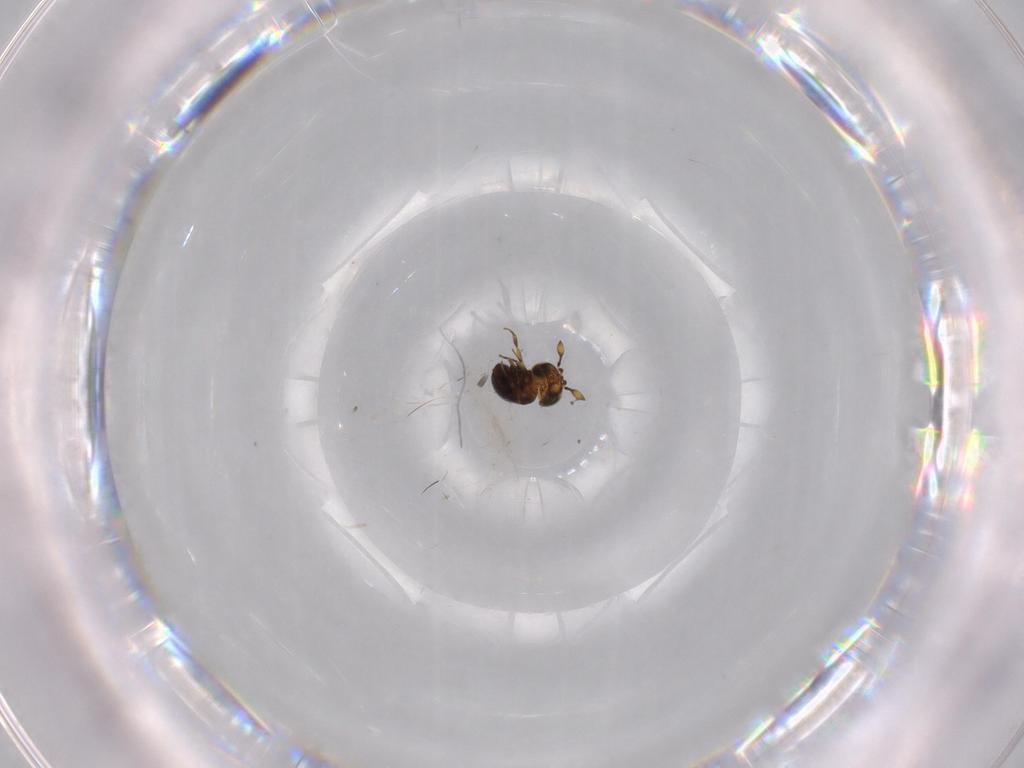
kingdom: Animalia
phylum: Arthropoda
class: Insecta
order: Hymenoptera
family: Scelionidae
